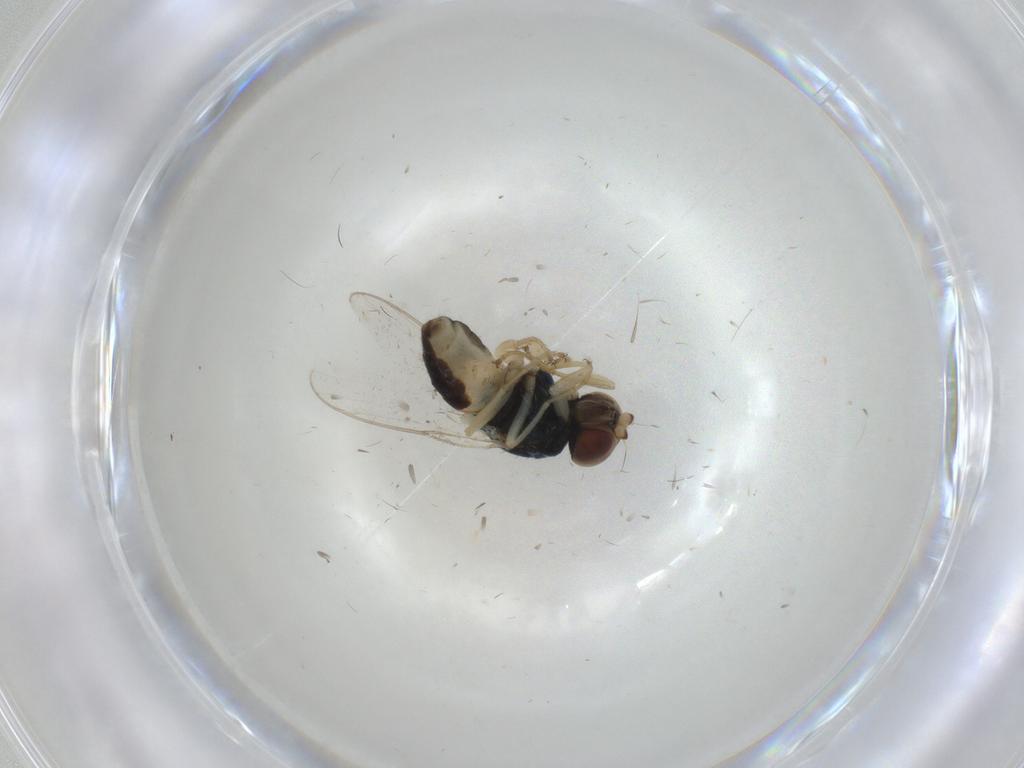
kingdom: Animalia
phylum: Arthropoda
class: Insecta
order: Diptera
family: Chloropidae
